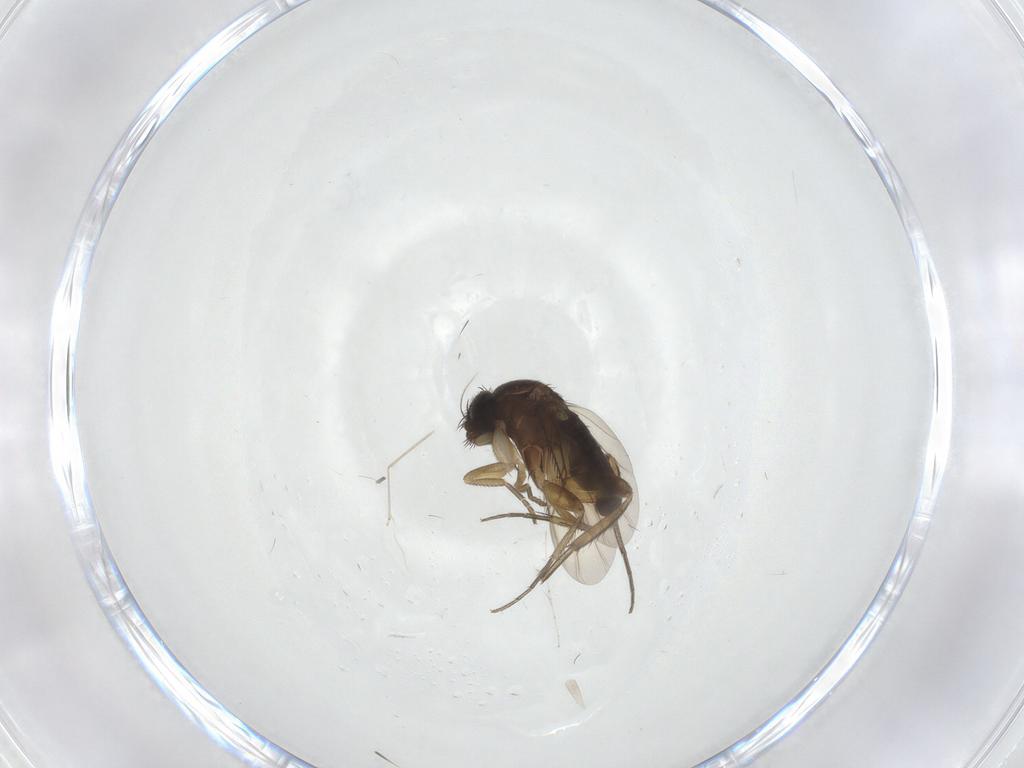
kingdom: Animalia
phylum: Arthropoda
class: Insecta
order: Diptera
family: Phoridae
